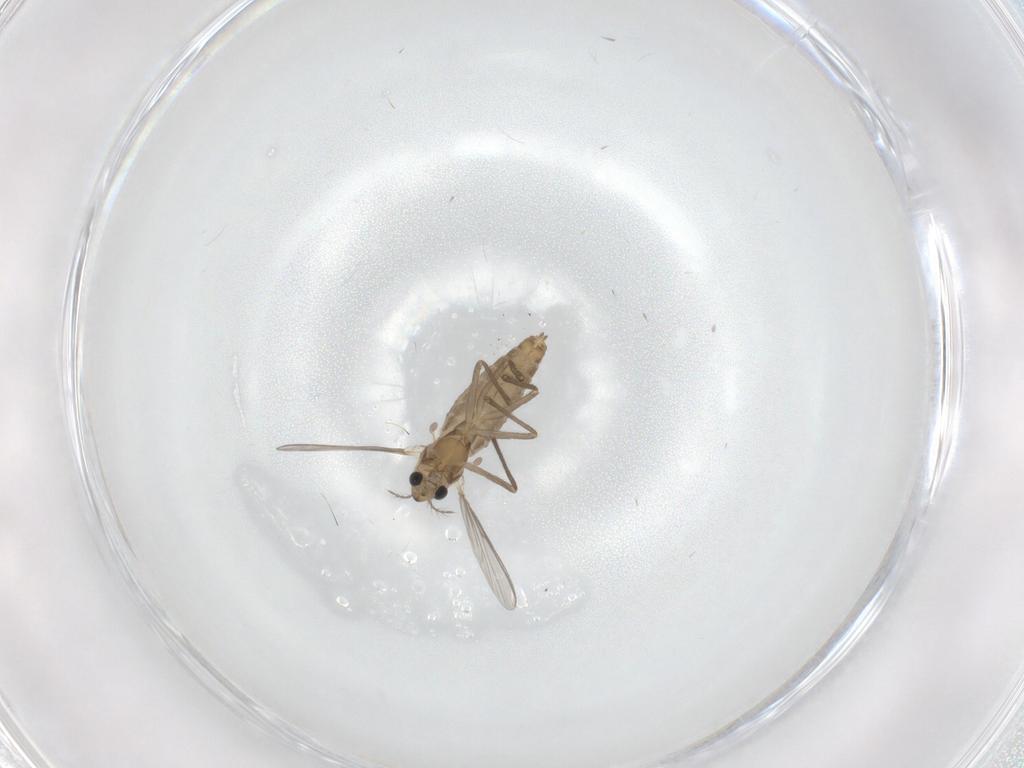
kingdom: Animalia
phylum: Arthropoda
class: Insecta
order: Diptera
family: Chironomidae
